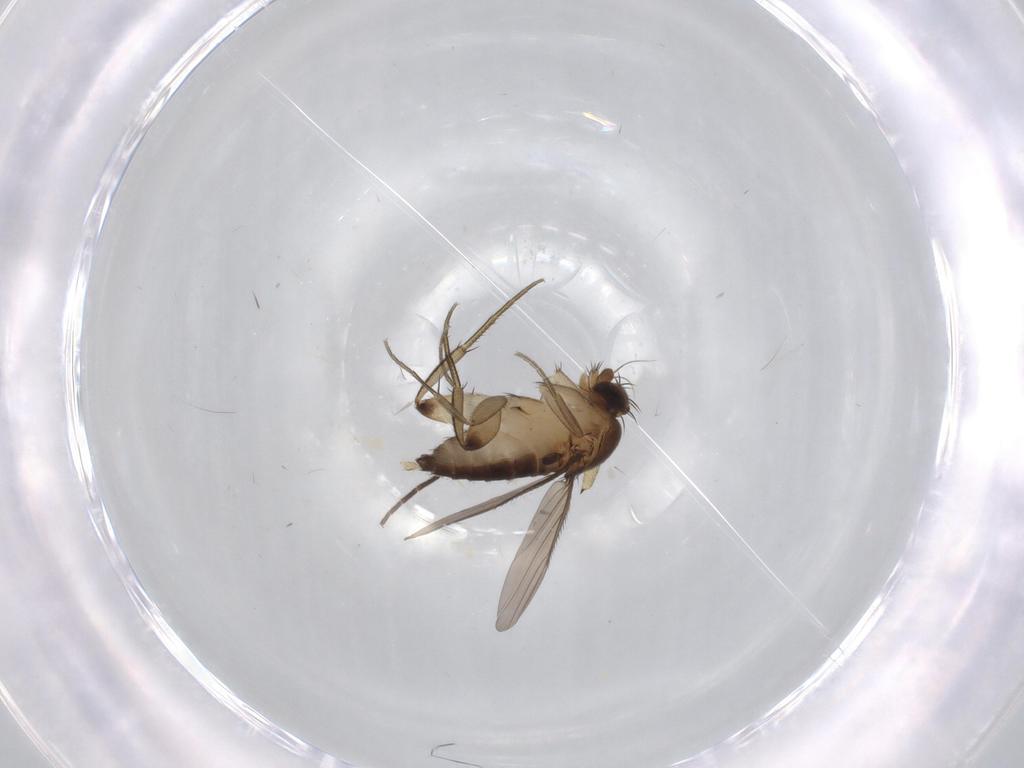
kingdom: Animalia
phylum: Arthropoda
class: Insecta
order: Diptera
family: Sciaridae
